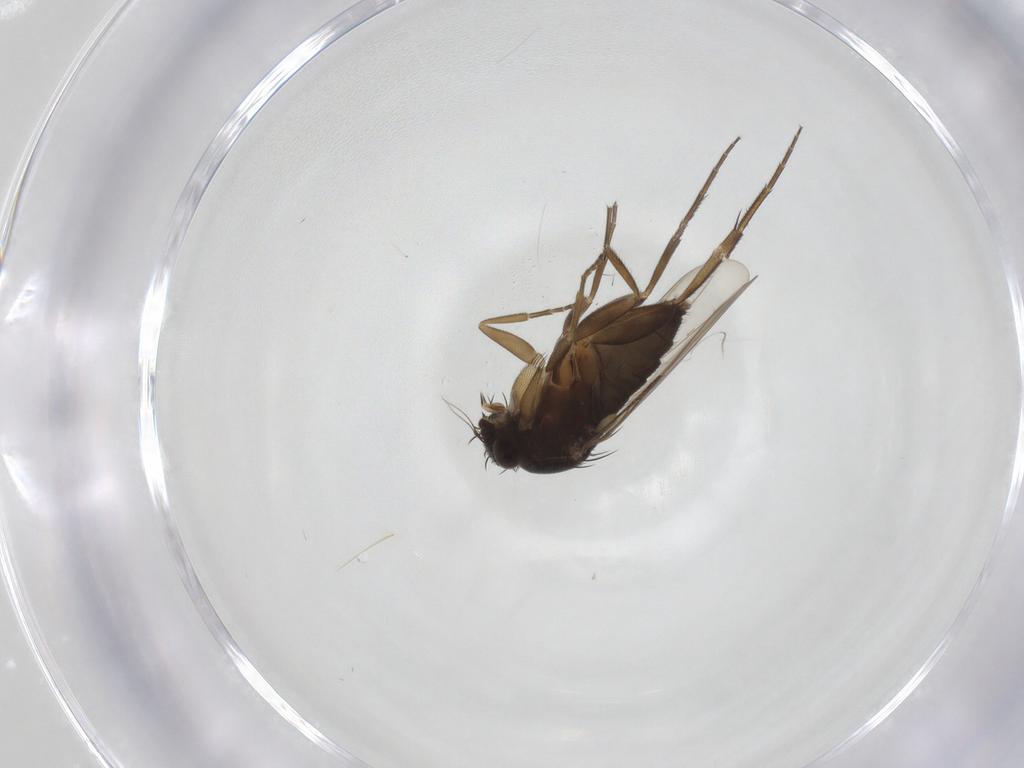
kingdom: Animalia
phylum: Arthropoda
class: Insecta
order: Diptera
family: Phoridae
